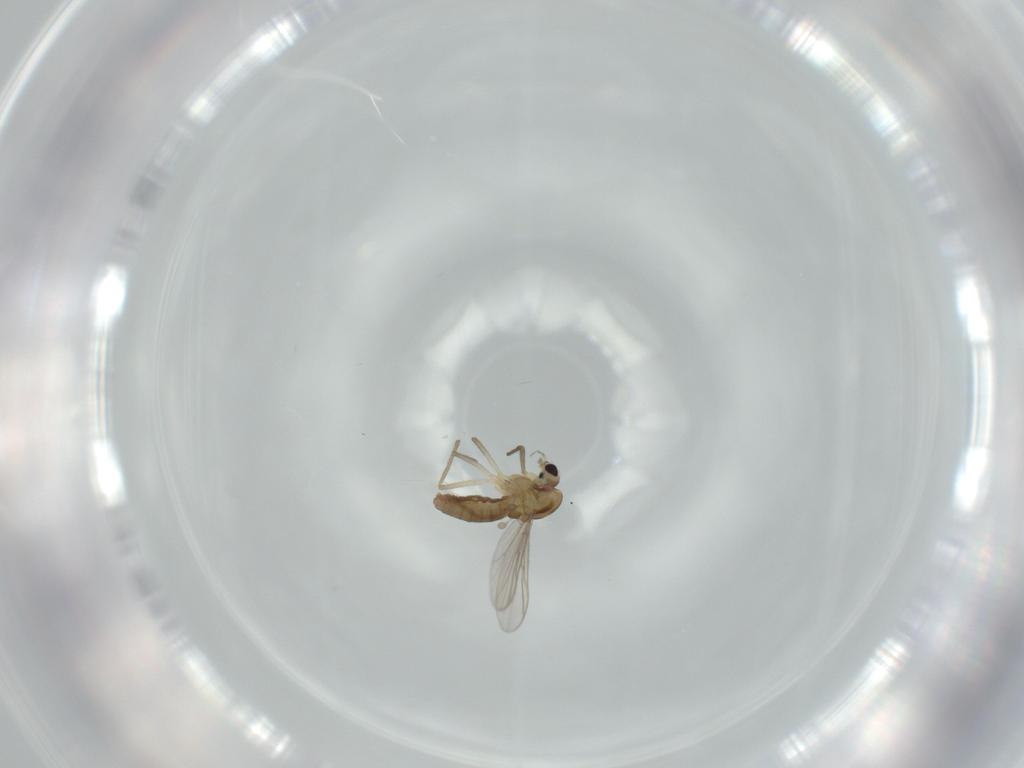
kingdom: Animalia
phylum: Arthropoda
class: Insecta
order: Diptera
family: Chironomidae
